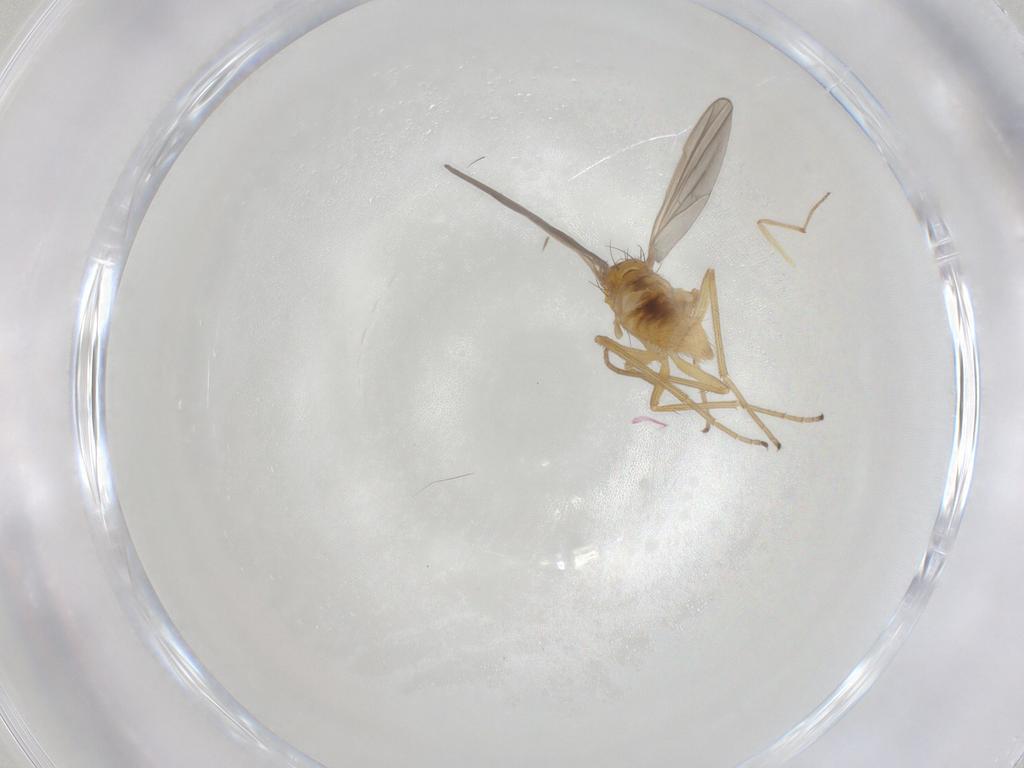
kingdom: Animalia
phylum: Arthropoda
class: Insecta
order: Diptera
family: Dolichopodidae
